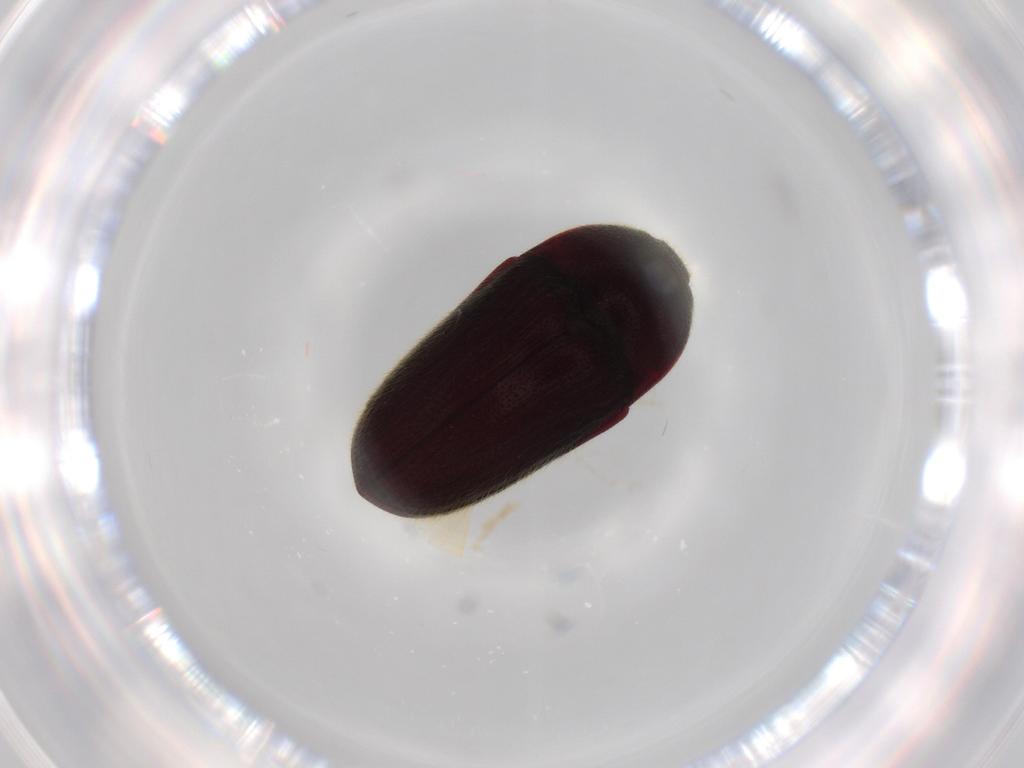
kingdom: Animalia
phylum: Arthropoda
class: Insecta
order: Coleoptera
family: Throscidae
